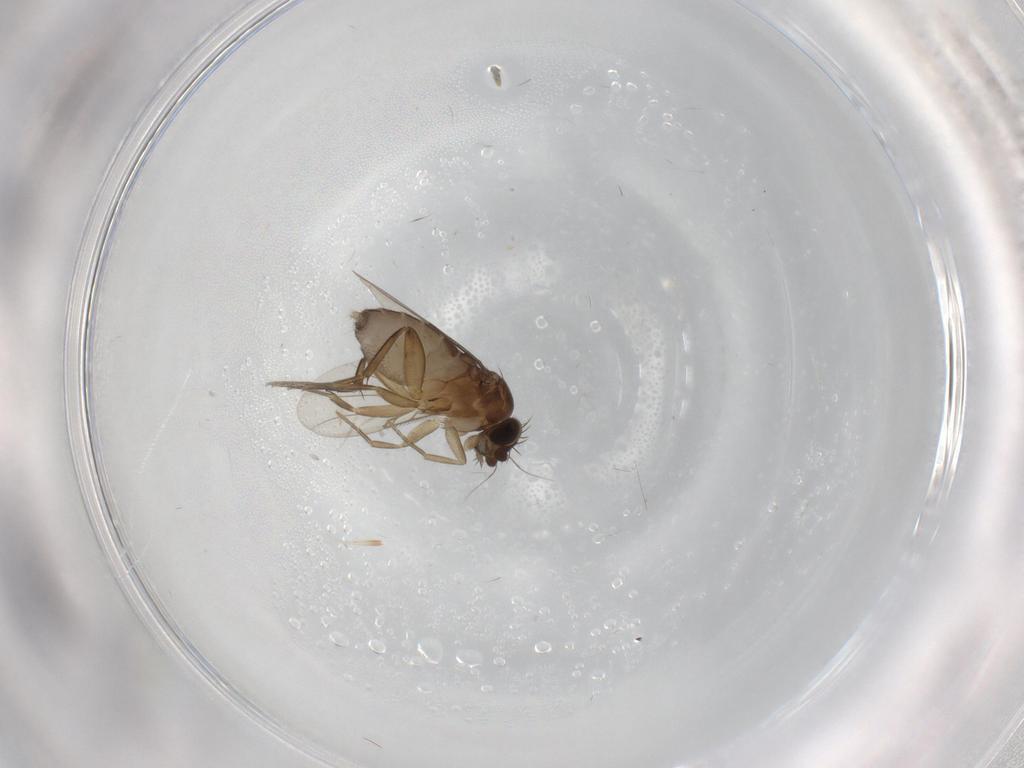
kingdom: Animalia
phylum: Arthropoda
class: Insecta
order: Diptera
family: Phoridae
